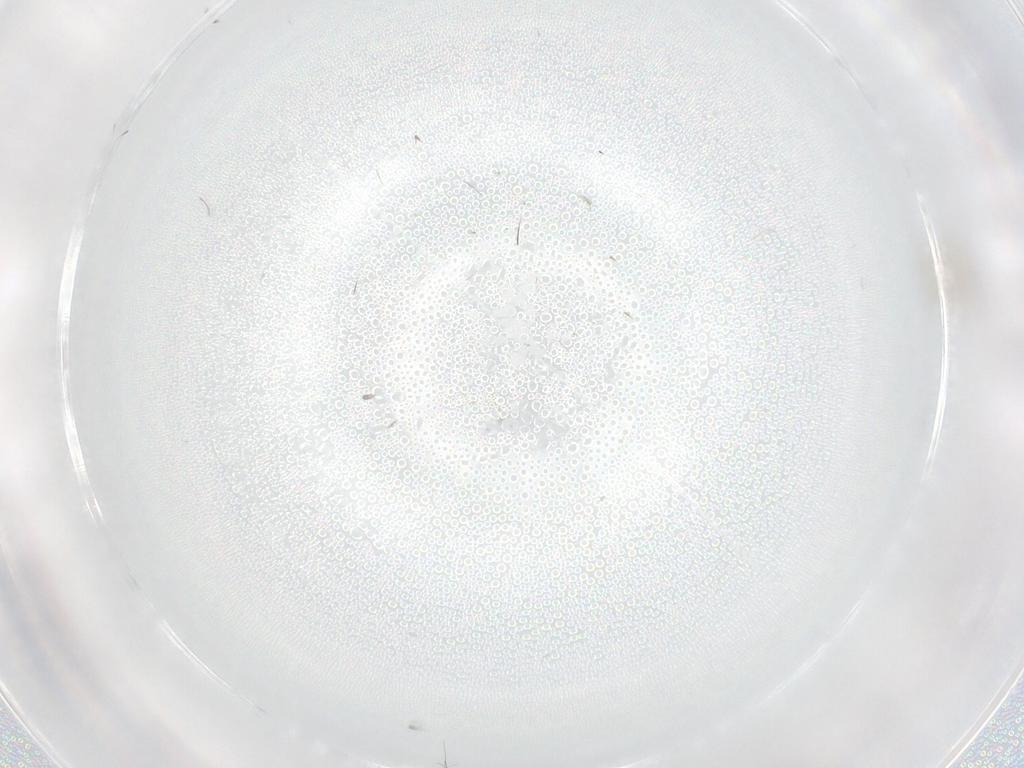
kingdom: Animalia
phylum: Arthropoda
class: Insecta
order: Diptera
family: Cecidomyiidae
